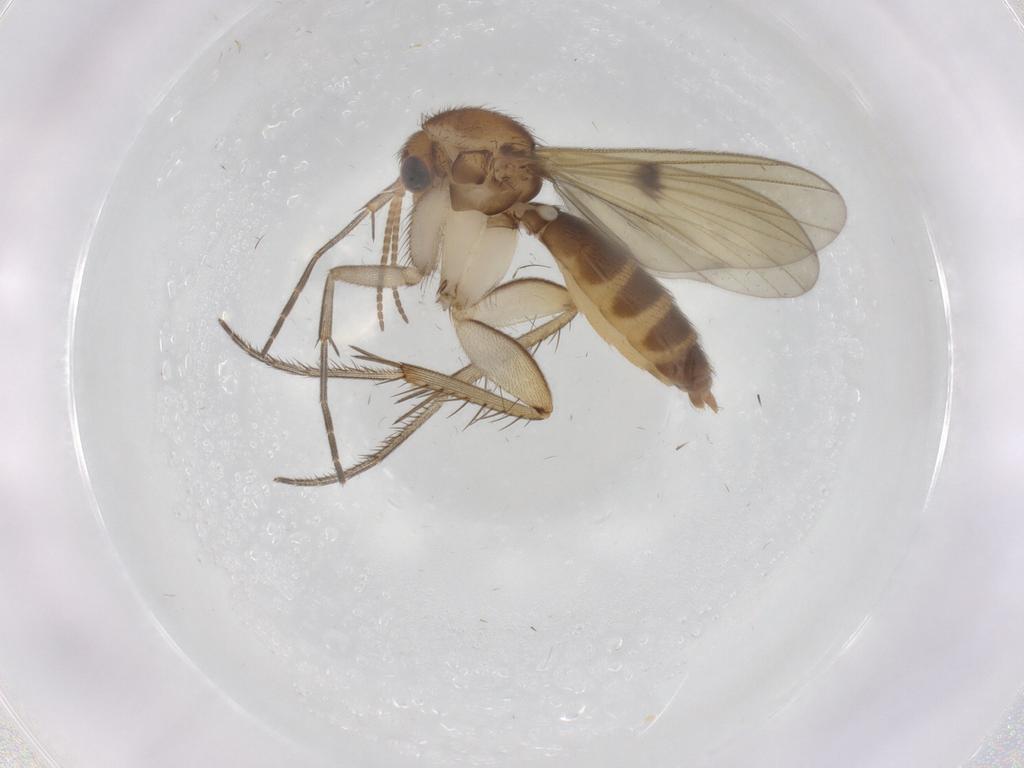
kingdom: Animalia
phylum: Arthropoda
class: Insecta
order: Diptera
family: Sciaridae
